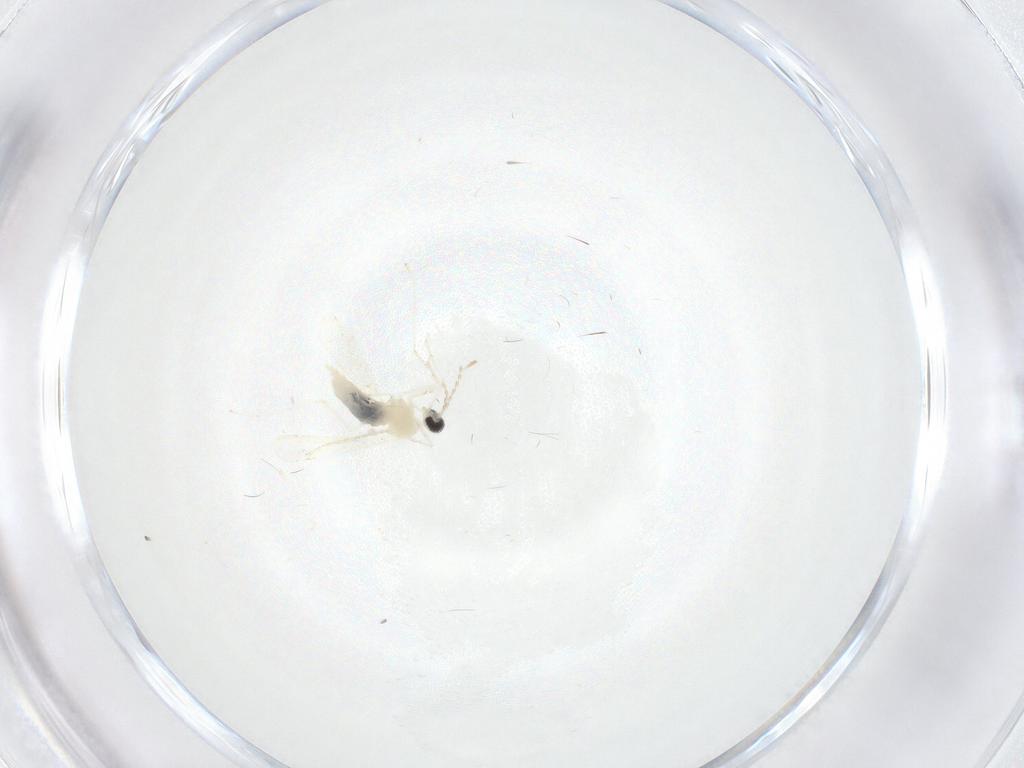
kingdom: Animalia
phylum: Arthropoda
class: Insecta
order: Diptera
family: Cecidomyiidae
